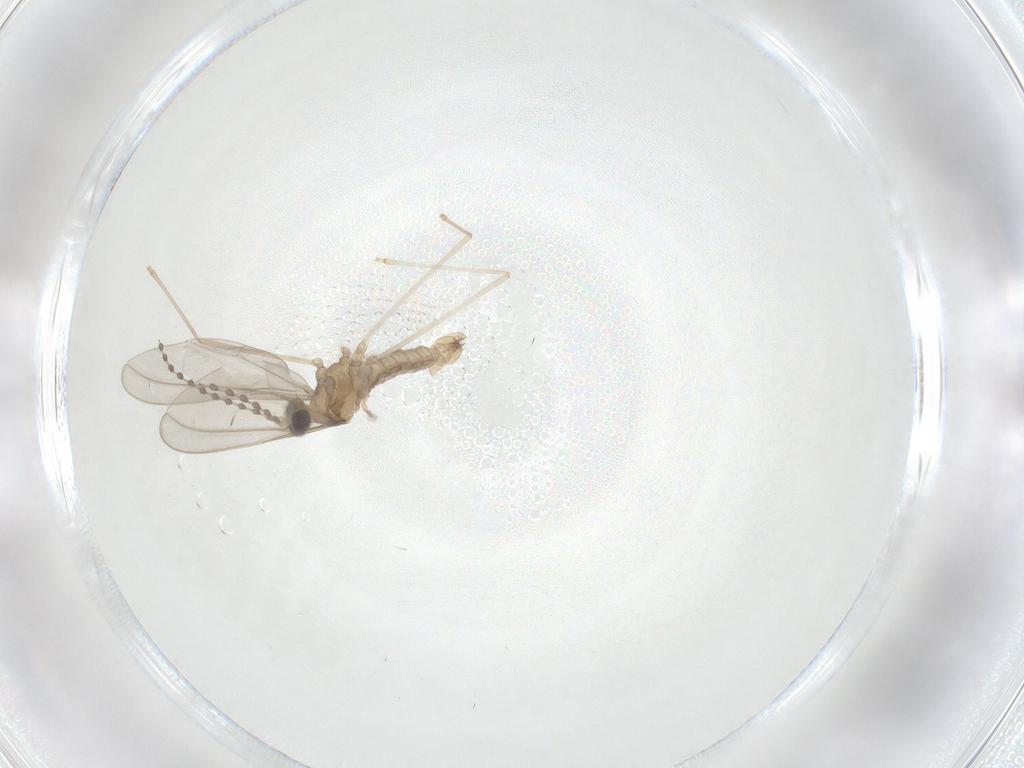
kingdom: Animalia
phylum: Arthropoda
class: Insecta
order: Diptera
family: Cecidomyiidae
